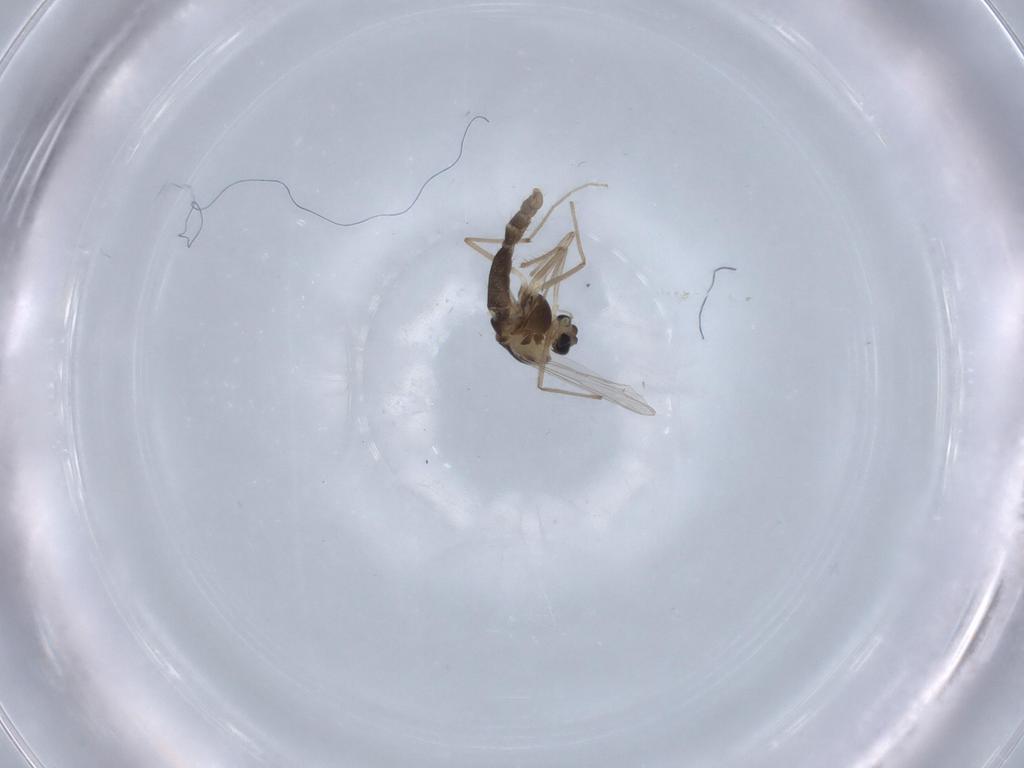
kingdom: Animalia
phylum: Arthropoda
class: Insecta
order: Diptera
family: Chironomidae
